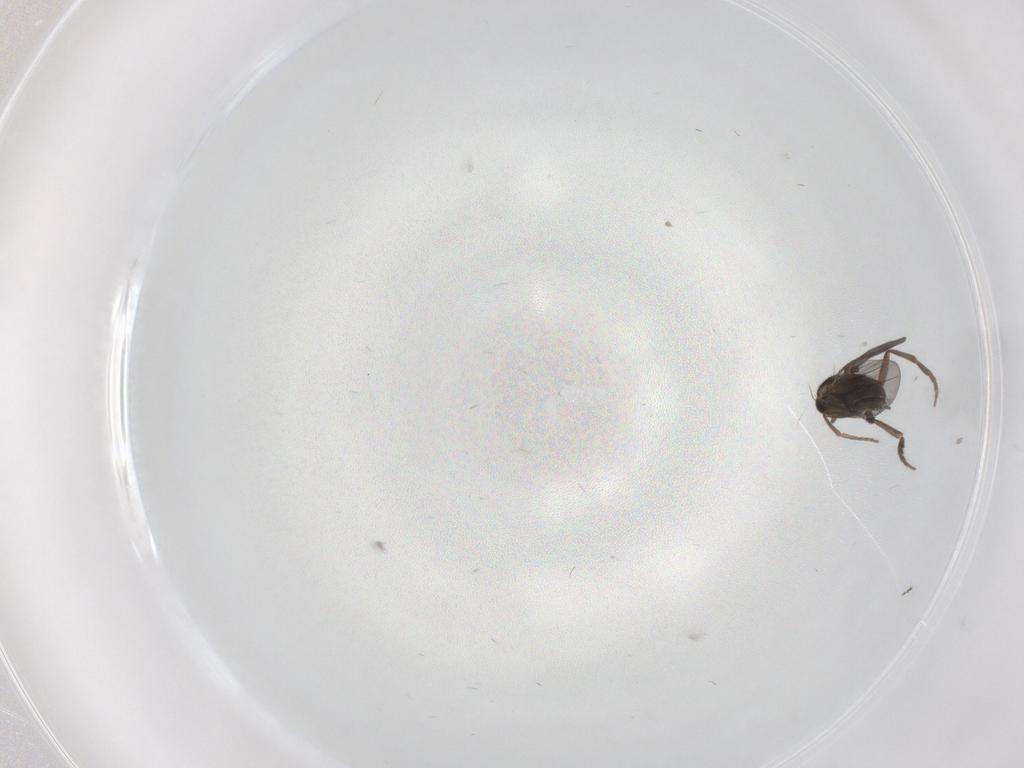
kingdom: Animalia
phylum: Arthropoda
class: Insecta
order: Diptera
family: Ceratopogonidae
